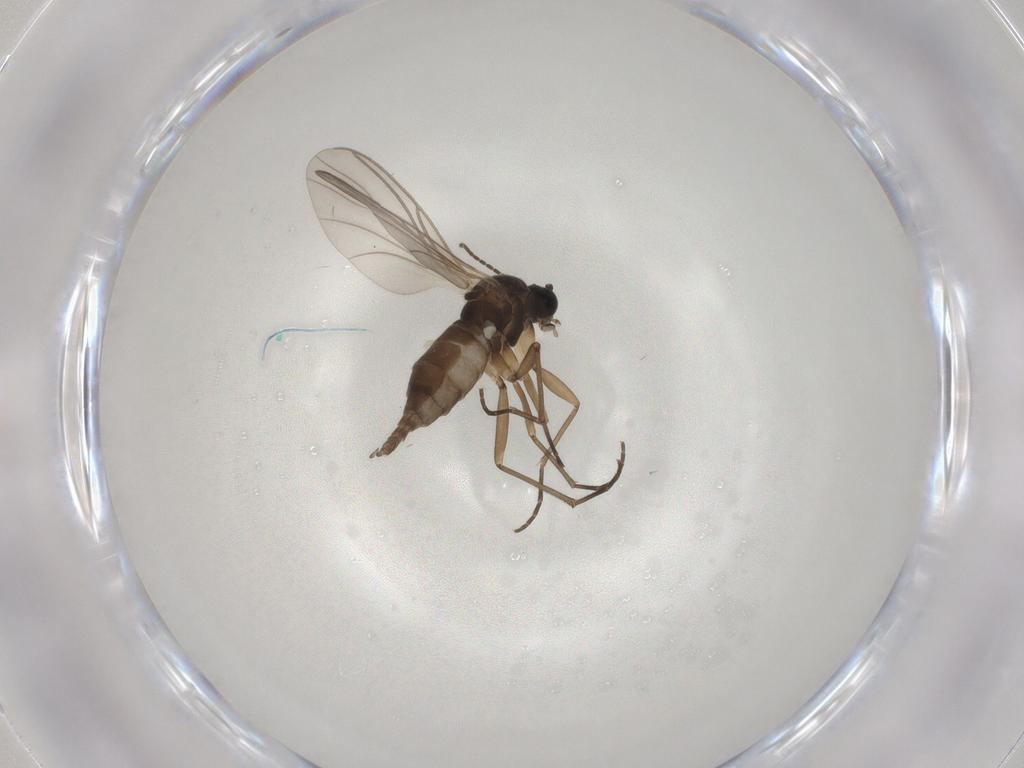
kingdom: Animalia
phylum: Arthropoda
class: Insecta
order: Diptera
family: Sciaridae
